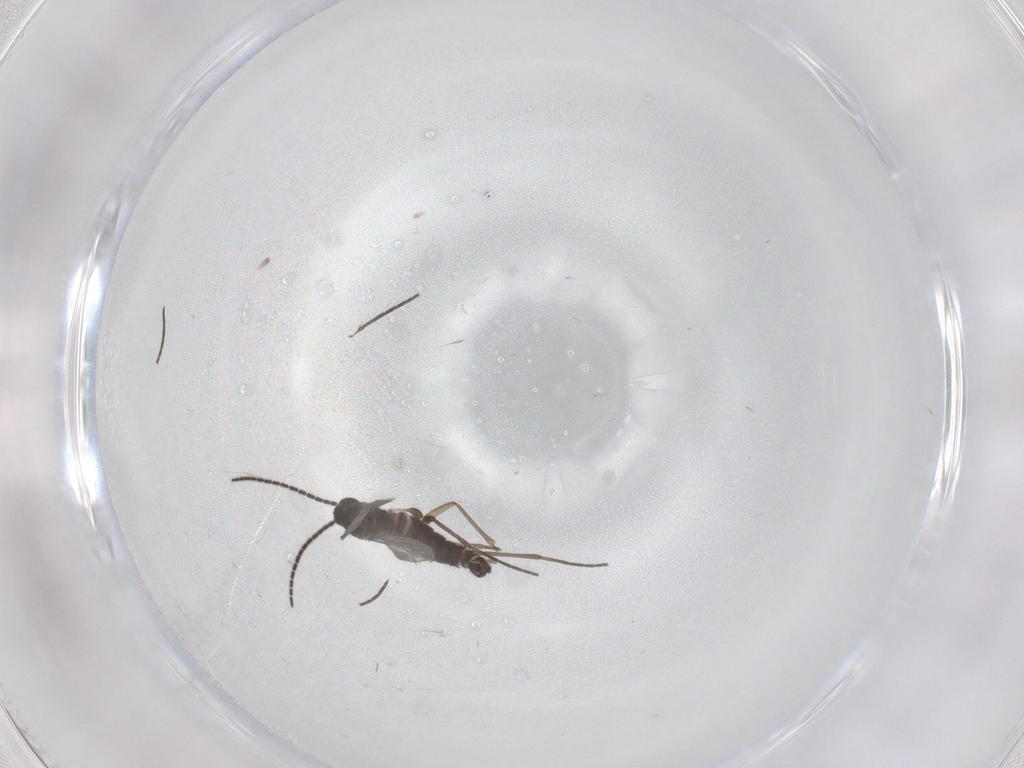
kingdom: Animalia
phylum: Arthropoda
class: Insecta
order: Diptera
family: Sciaridae
